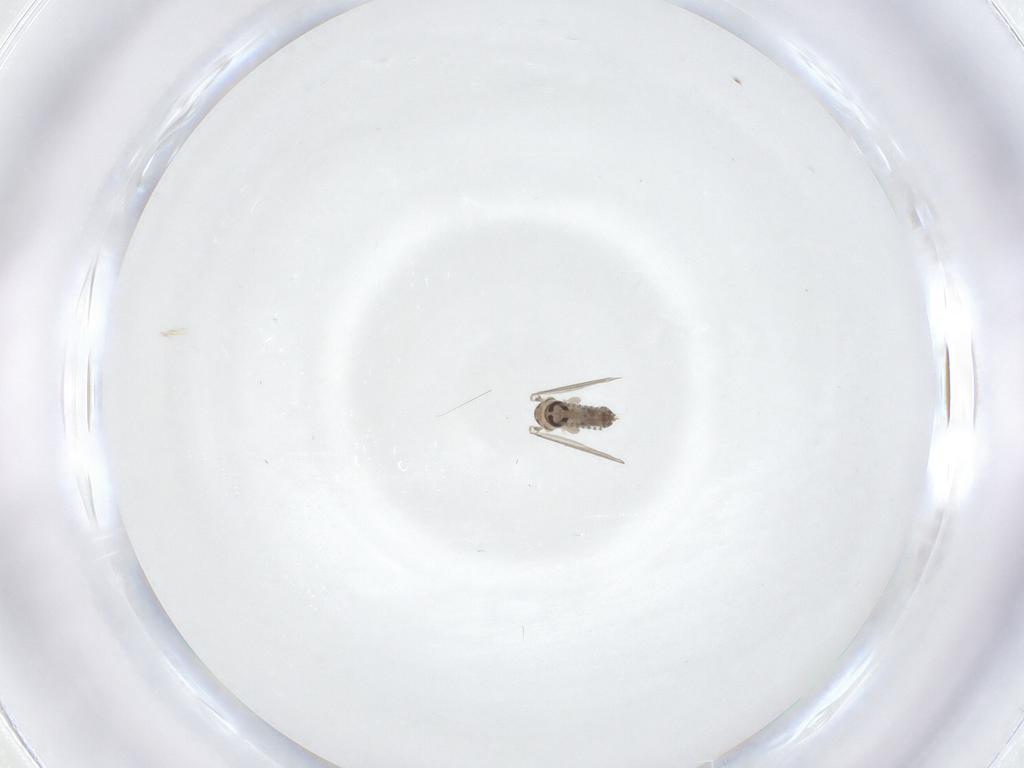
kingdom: Animalia
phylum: Arthropoda
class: Insecta
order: Diptera
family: Psychodidae
